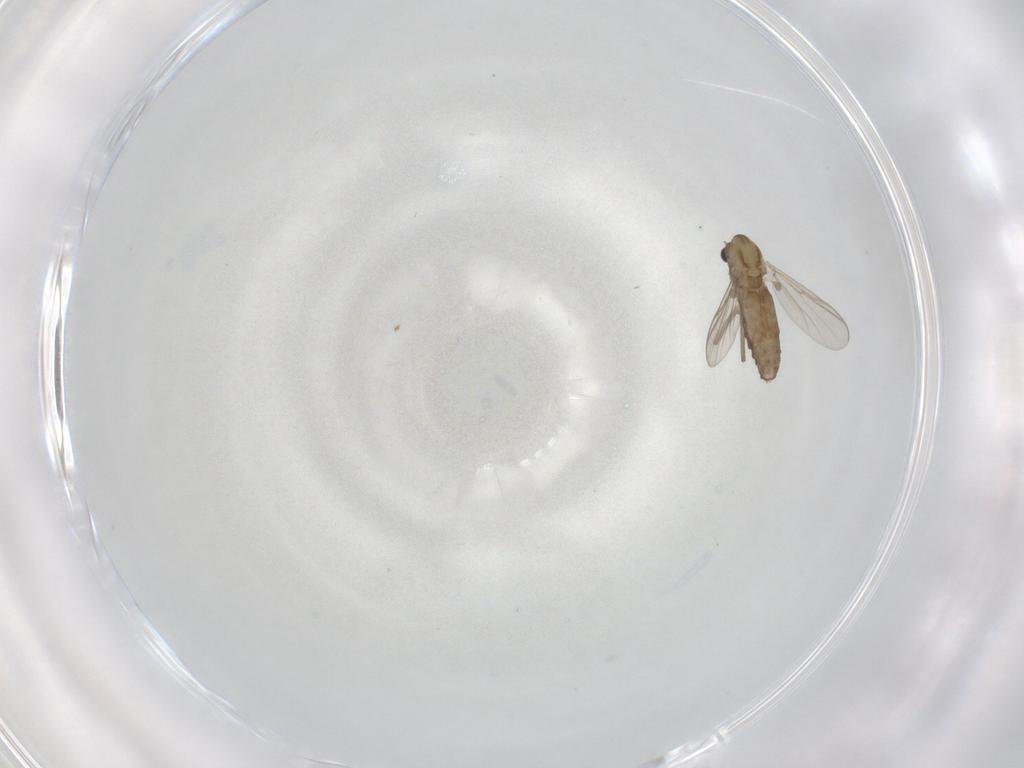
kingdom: Animalia
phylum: Arthropoda
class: Insecta
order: Diptera
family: Chironomidae
